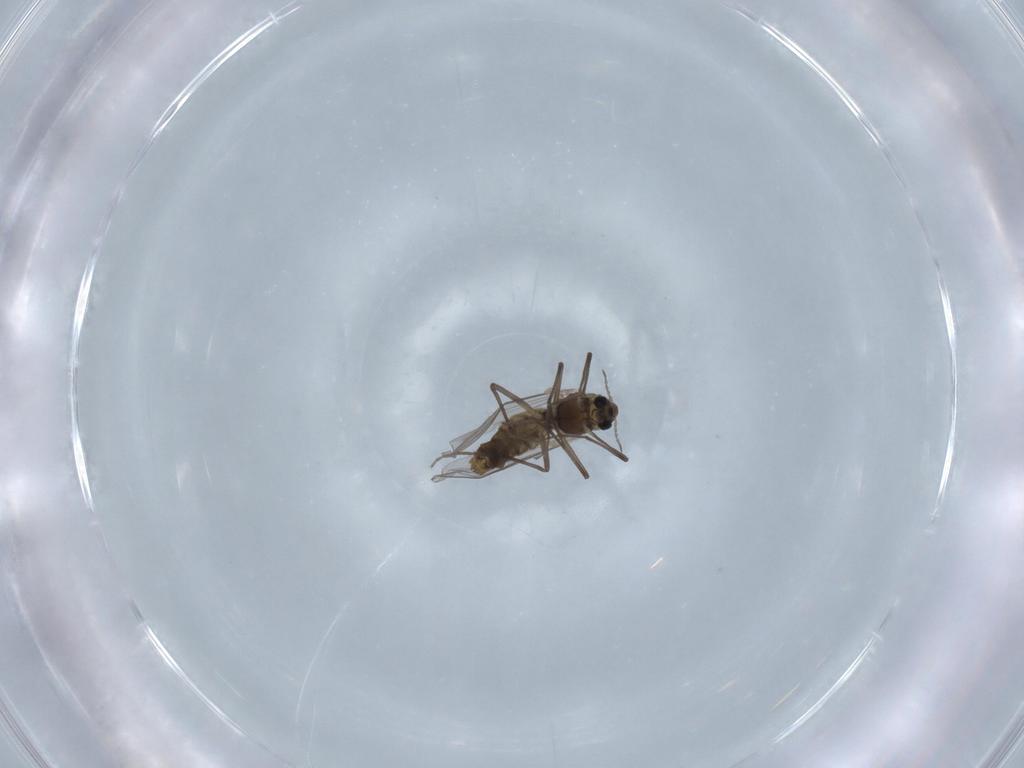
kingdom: Animalia
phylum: Arthropoda
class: Insecta
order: Diptera
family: Chironomidae
